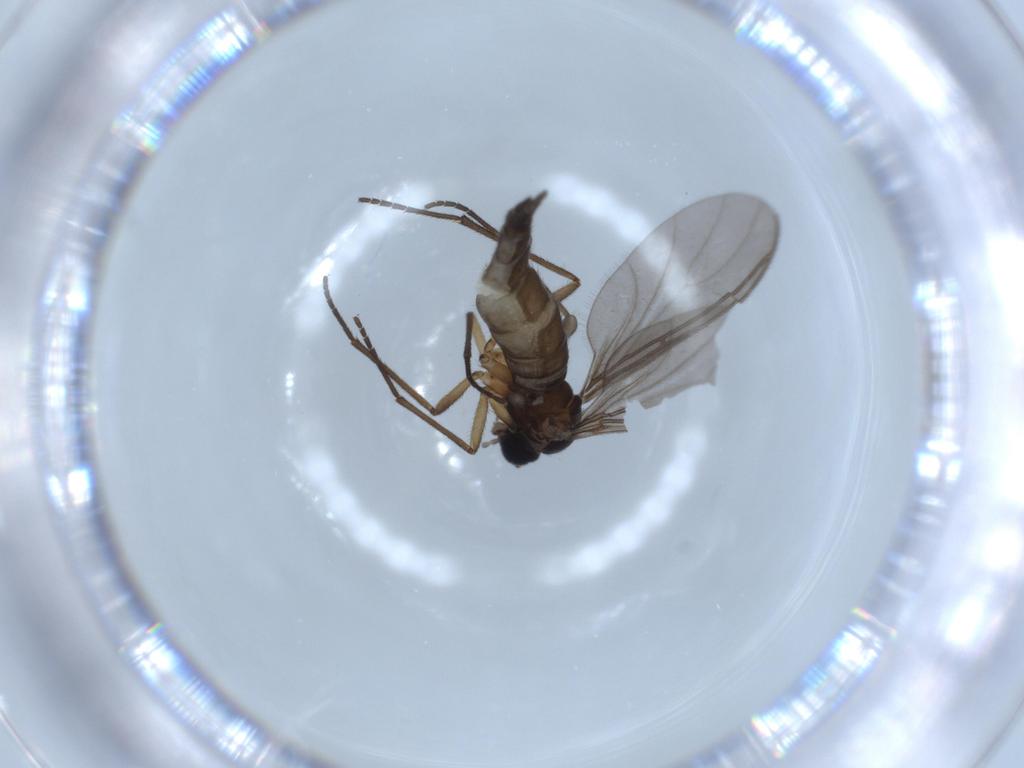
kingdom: Animalia
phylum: Arthropoda
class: Insecta
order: Diptera
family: Sciaridae
